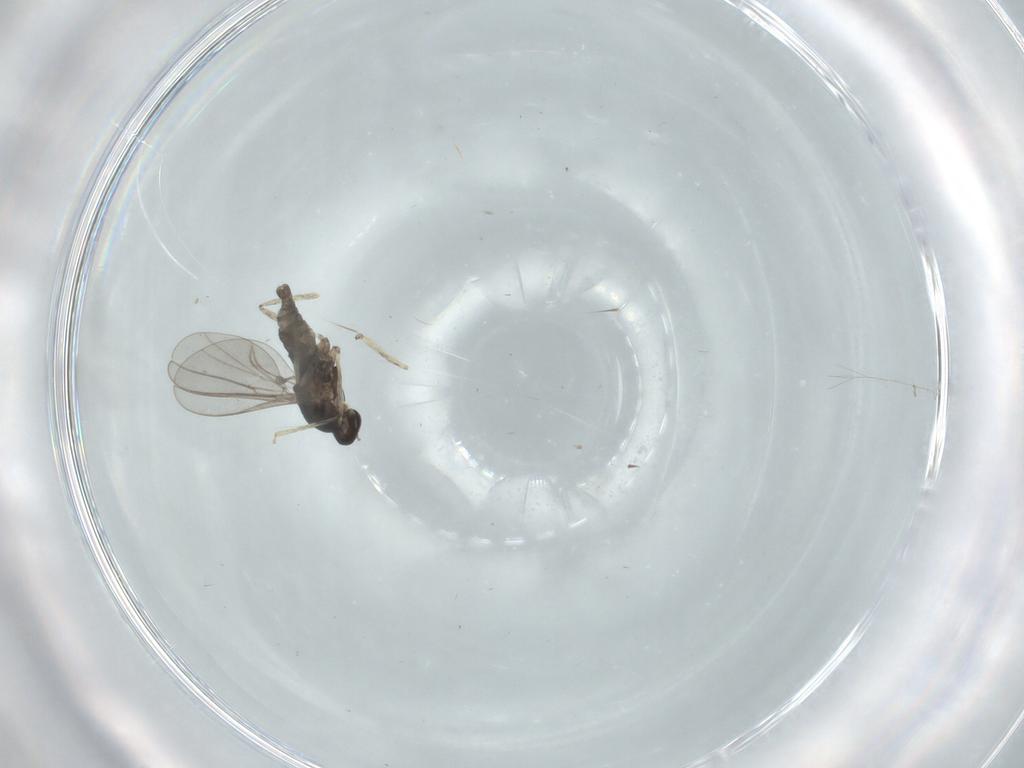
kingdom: Animalia
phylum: Arthropoda
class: Insecta
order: Diptera
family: Cecidomyiidae
